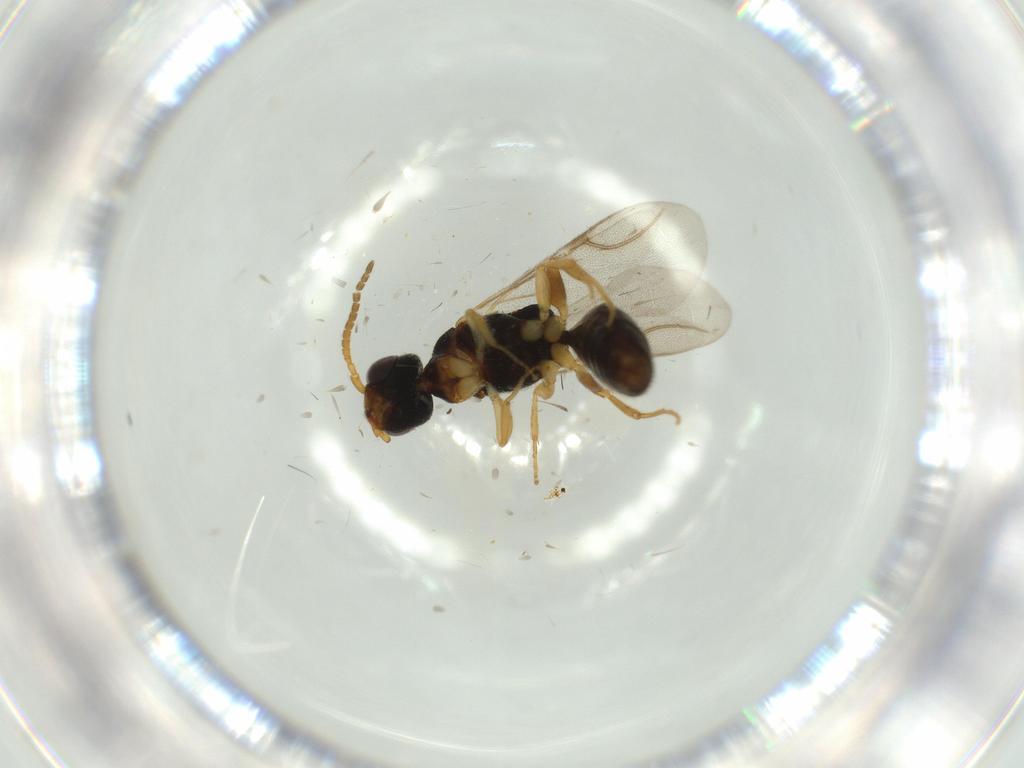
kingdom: Animalia
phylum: Arthropoda
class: Insecta
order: Hymenoptera
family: Bethylidae
